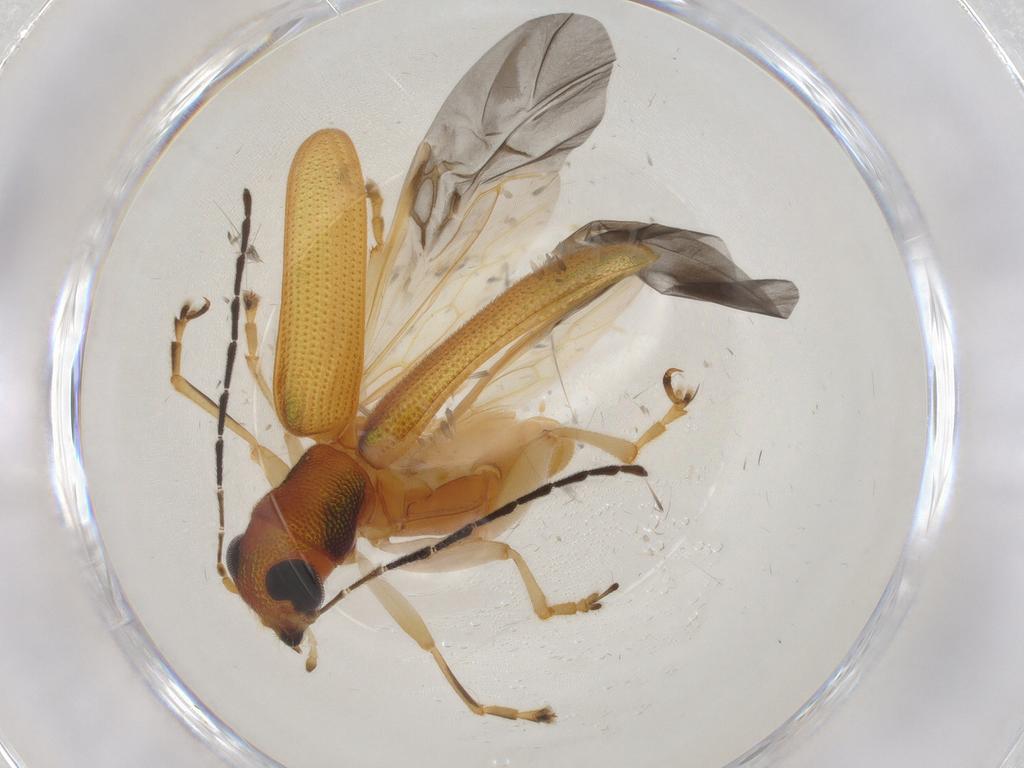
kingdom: Animalia
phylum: Arthropoda
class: Insecta
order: Coleoptera
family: Chrysomelidae
